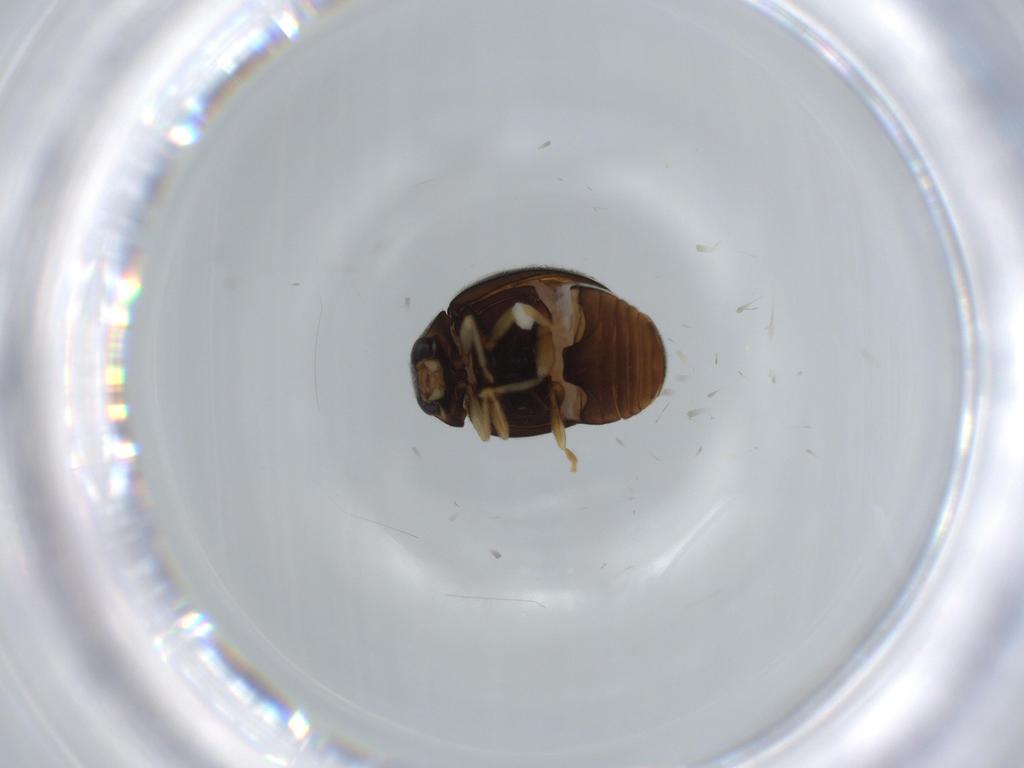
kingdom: Animalia
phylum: Arthropoda
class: Insecta
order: Coleoptera
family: Coccinellidae
